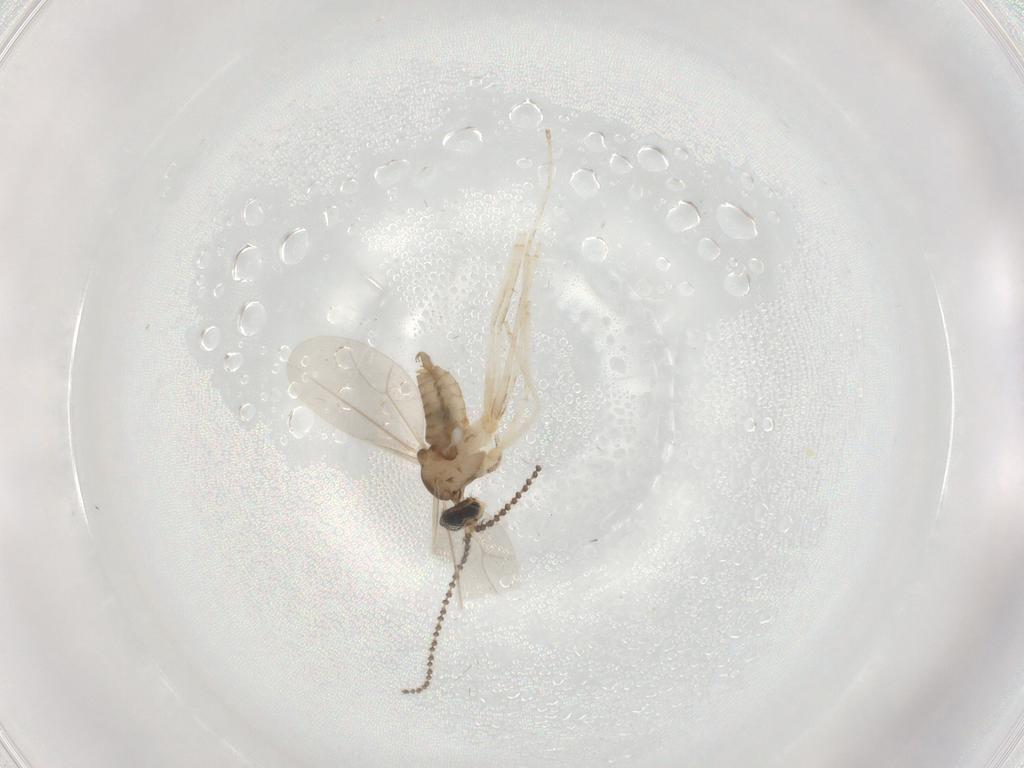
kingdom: Animalia
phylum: Arthropoda
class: Insecta
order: Diptera
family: Cecidomyiidae
